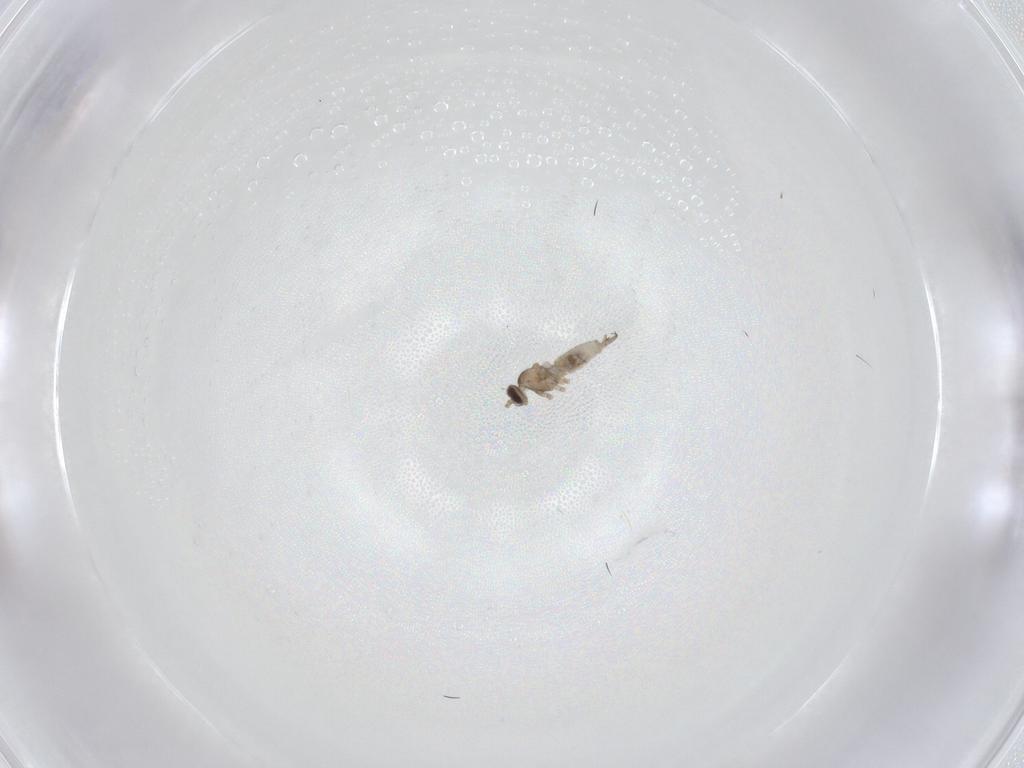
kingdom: Animalia
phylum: Arthropoda
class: Insecta
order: Diptera
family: Cecidomyiidae
